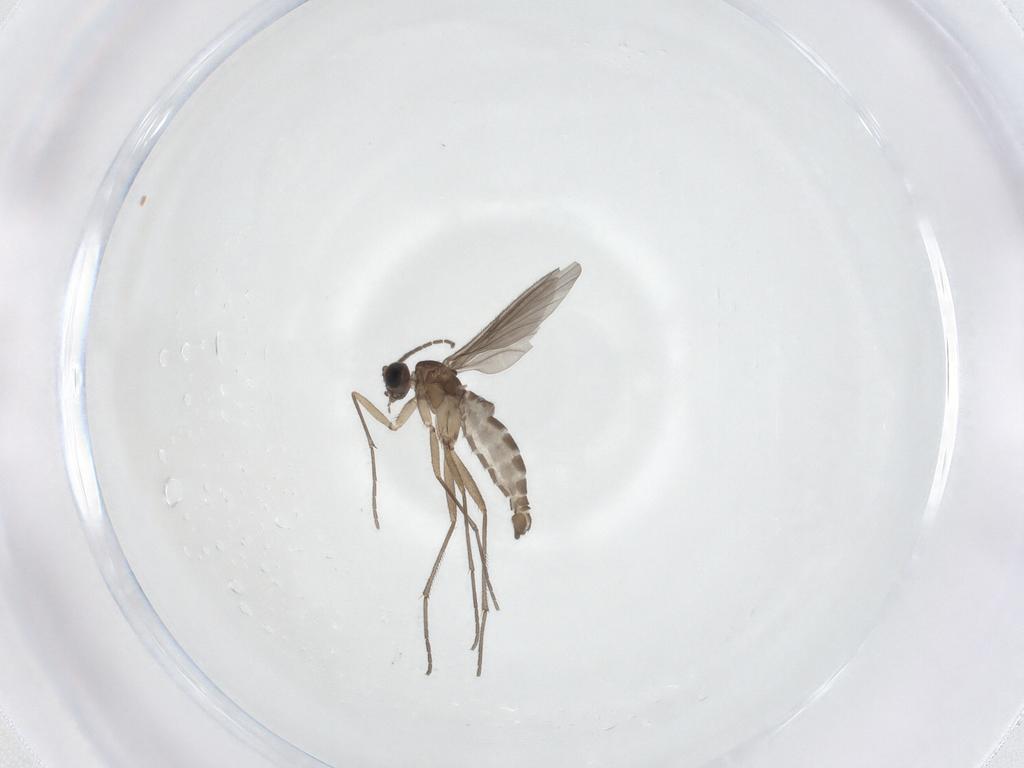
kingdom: Animalia
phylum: Arthropoda
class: Insecta
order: Diptera
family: Sciaridae
